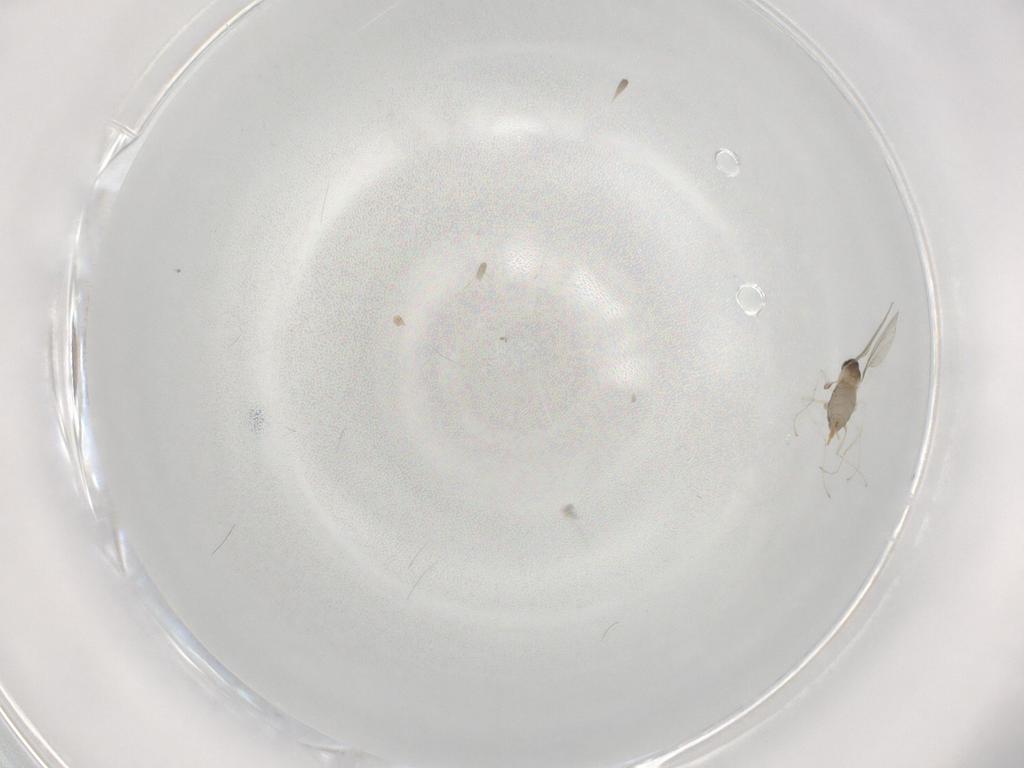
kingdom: Animalia
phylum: Arthropoda
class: Insecta
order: Diptera
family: Cecidomyiidae
